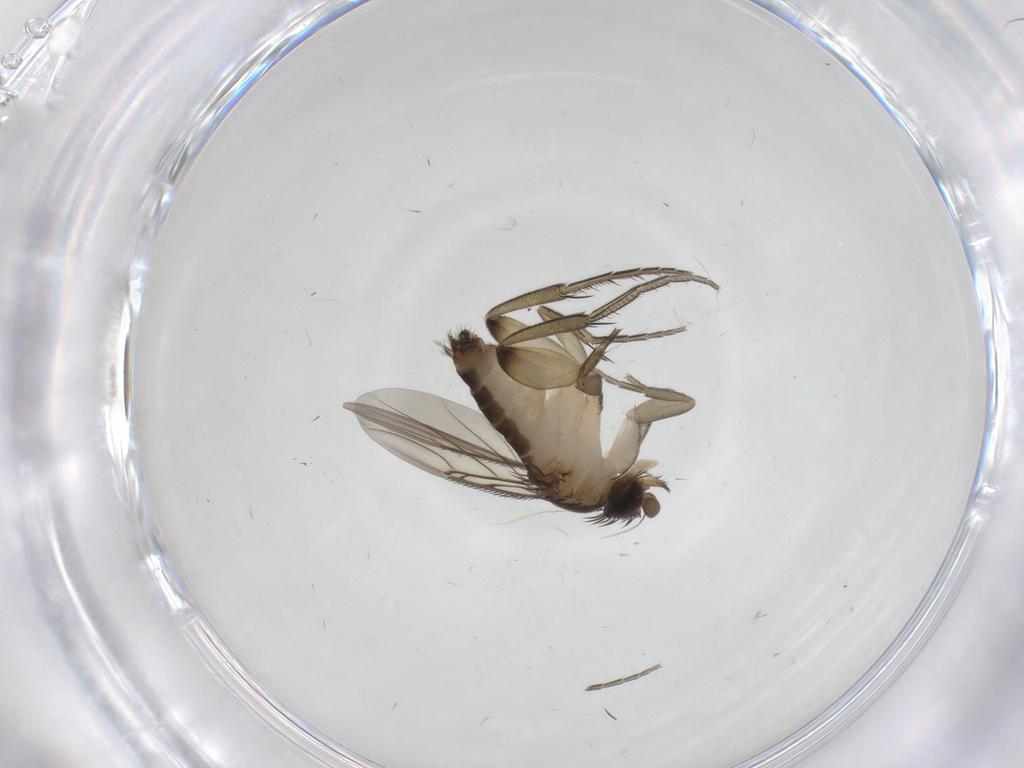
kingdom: Animalia
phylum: Arthropoda
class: Insecta
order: Diptera
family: Phoridae
